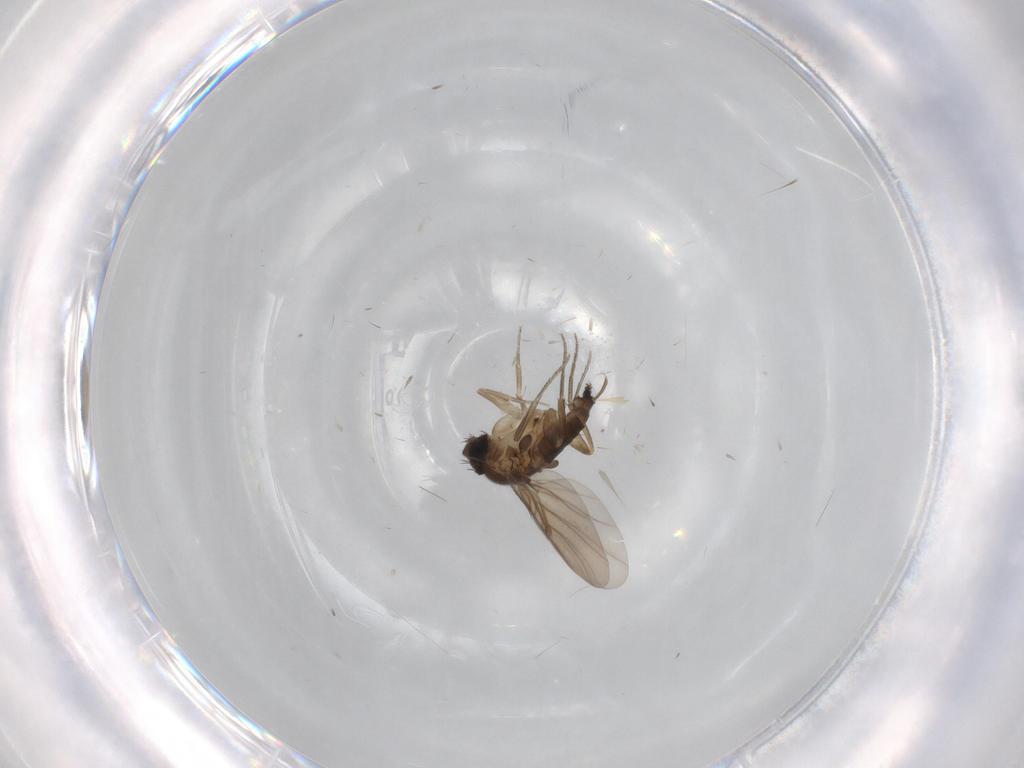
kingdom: Animalia
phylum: Arthropoda
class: Insecta
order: Diptera
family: Phoridae
